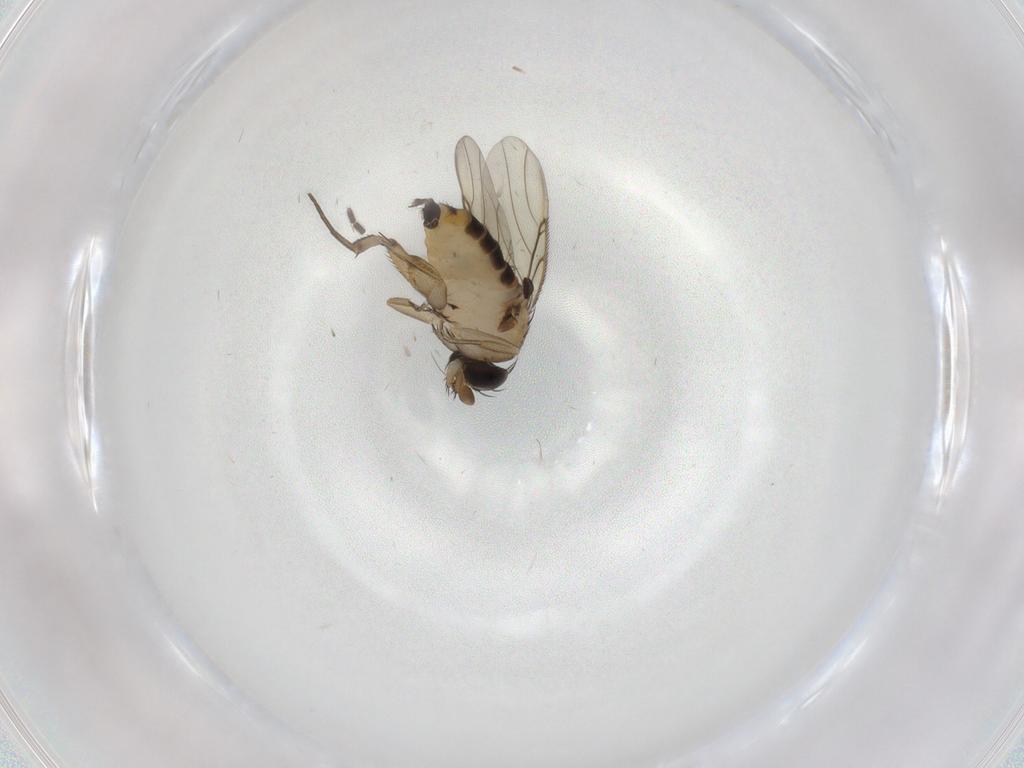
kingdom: Animalia
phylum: Arthropoda
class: Insecta
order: Diptera
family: Phoridae
